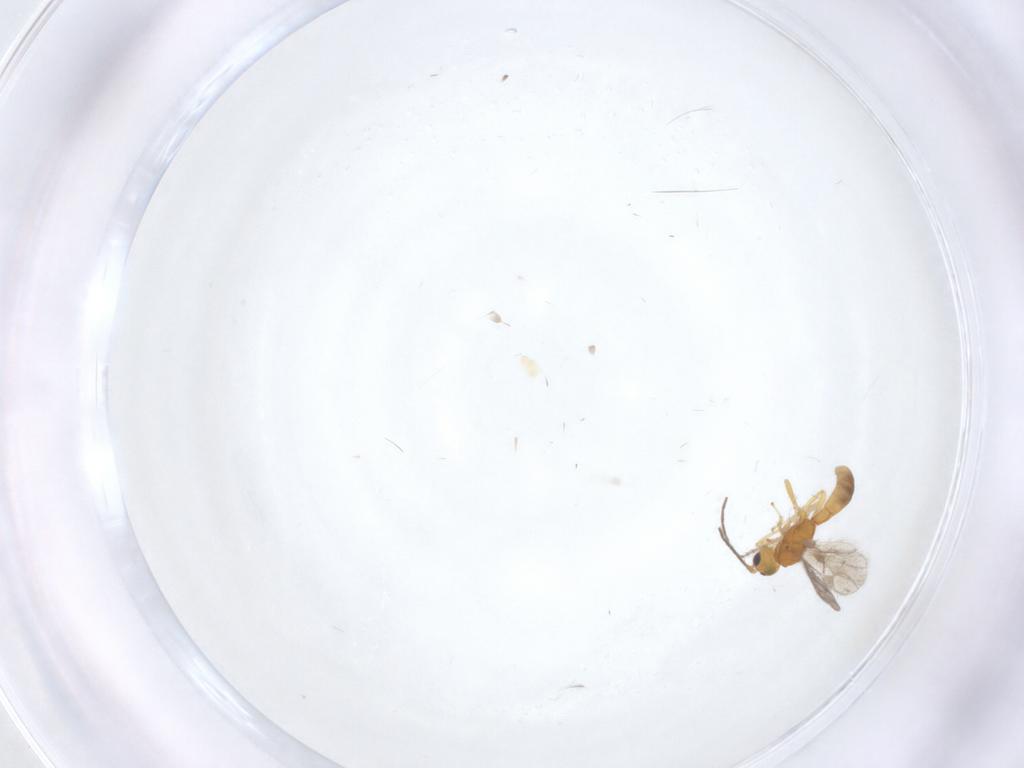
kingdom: Animalia
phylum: Arthropoda
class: Insecta
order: Hymenoptera
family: Braconidae
